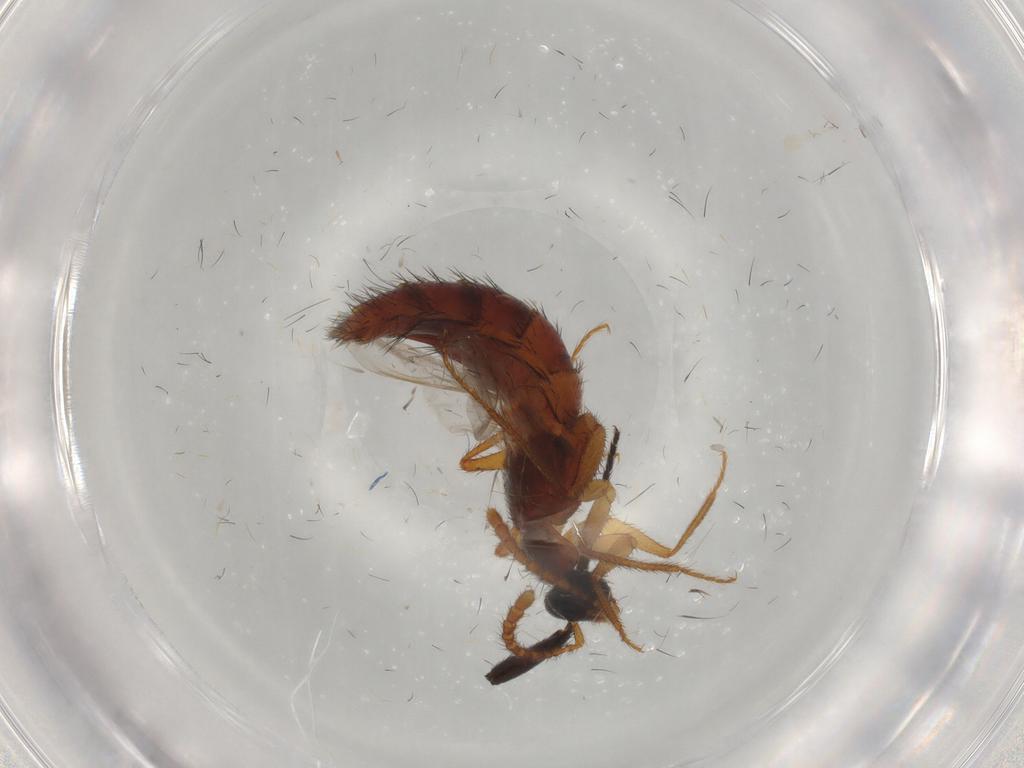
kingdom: Animalia
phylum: Arthropoda
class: Insecta
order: Coleoptera
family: Staphylinidae
